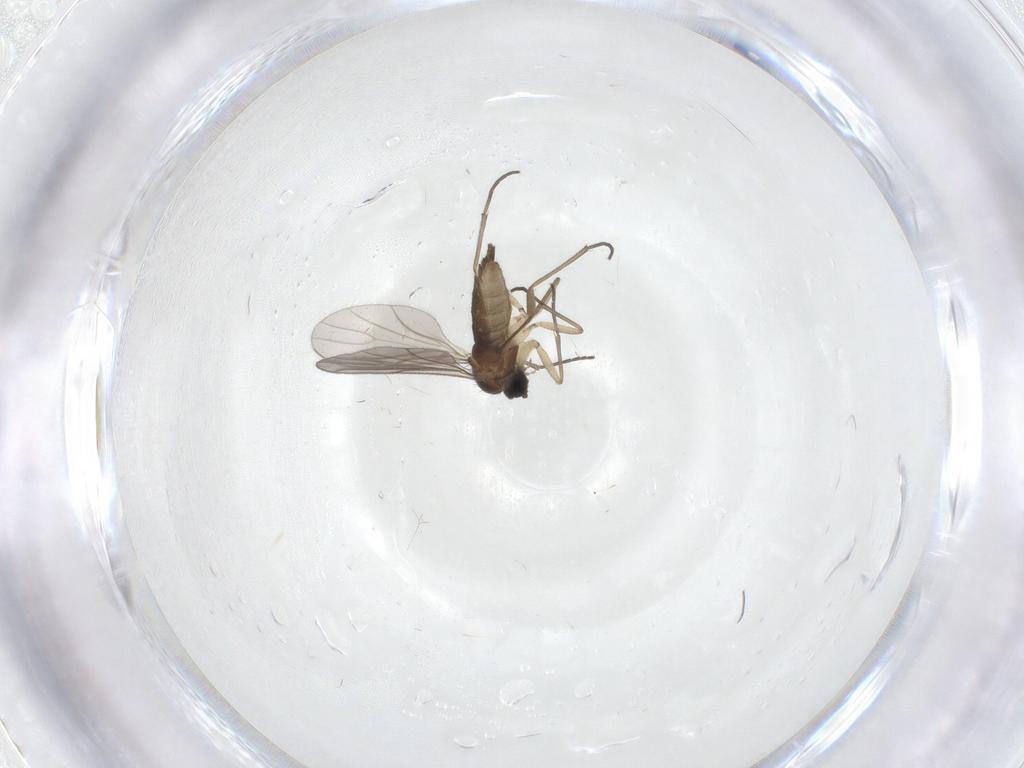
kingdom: Animalia
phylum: Arthropoda
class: Insecta
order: Diptera
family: Sciaridae
